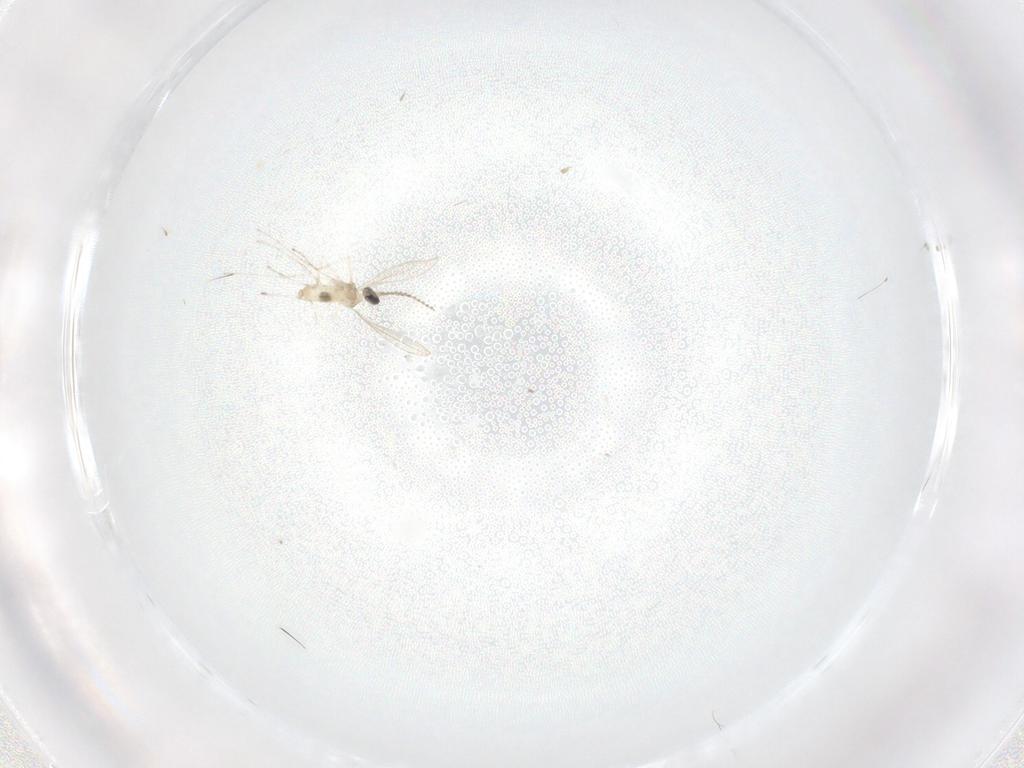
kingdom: Animalia
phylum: Arthropoda
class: Insecta
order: Diptera
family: Cecidomyiidae
